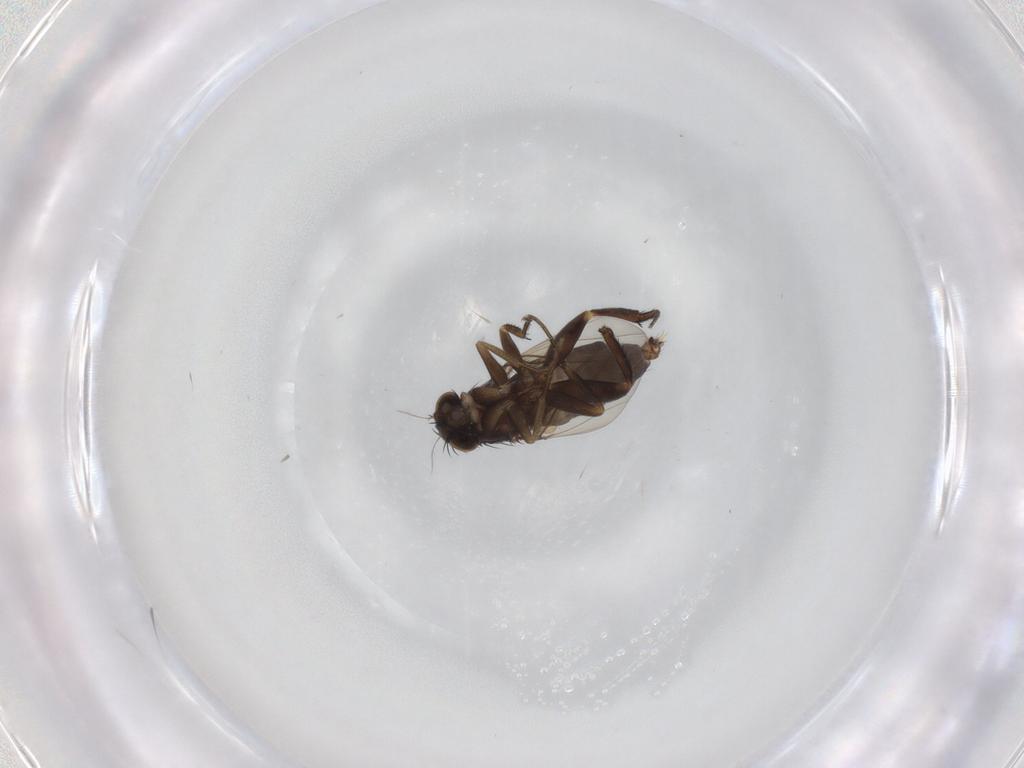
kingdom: Animalia
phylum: Arthropoda
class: Insecta
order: Diptera
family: Phoridae
